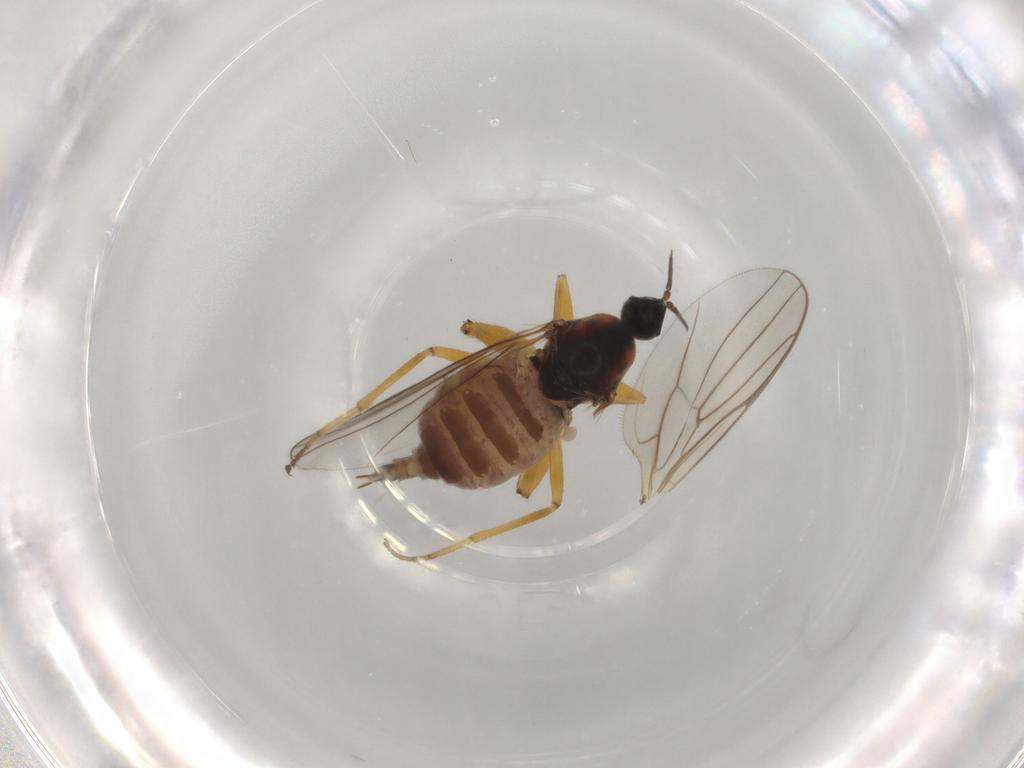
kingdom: Animalia
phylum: Arthropoda
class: Insecta
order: Diptera
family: Hybotidae
